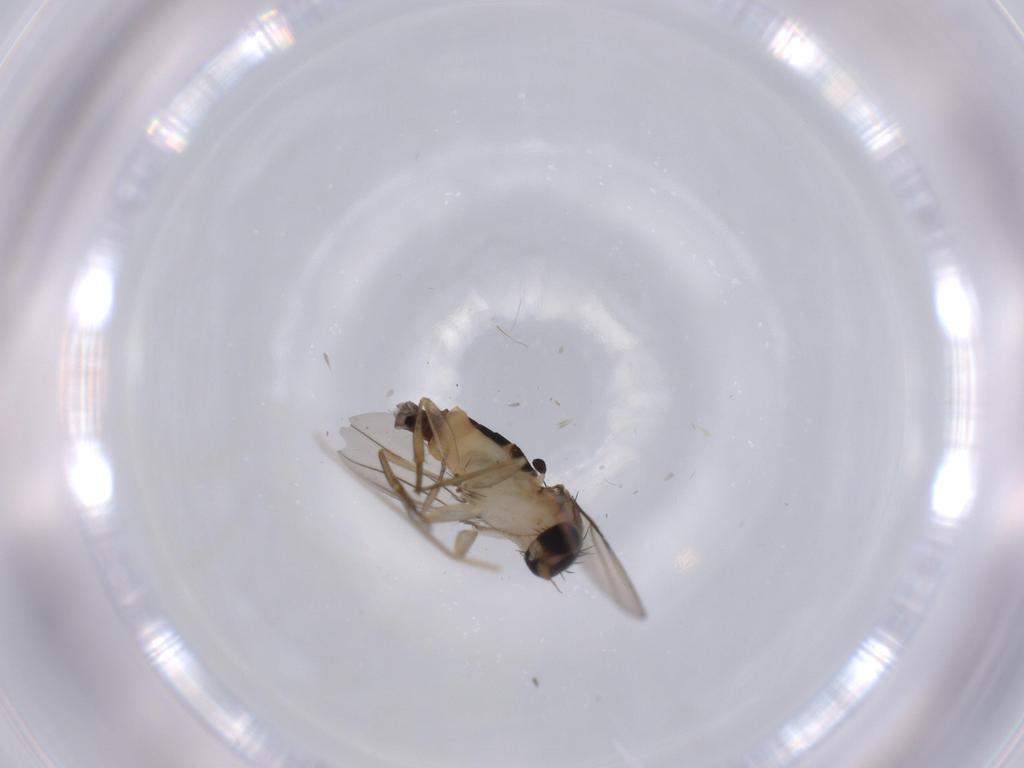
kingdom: Animalia
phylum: Arthropoda
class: Insecta
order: Diptera
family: Phoridae
